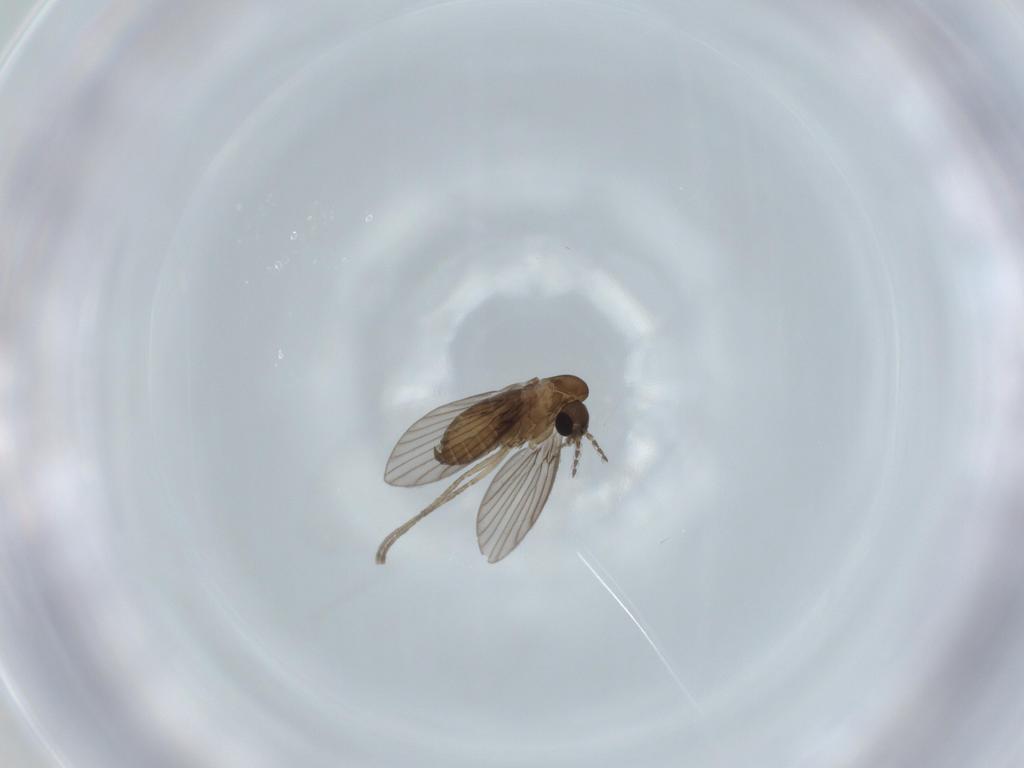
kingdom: Animalia
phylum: Arthropoda
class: Insecta
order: Diptera
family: Psychodidae
